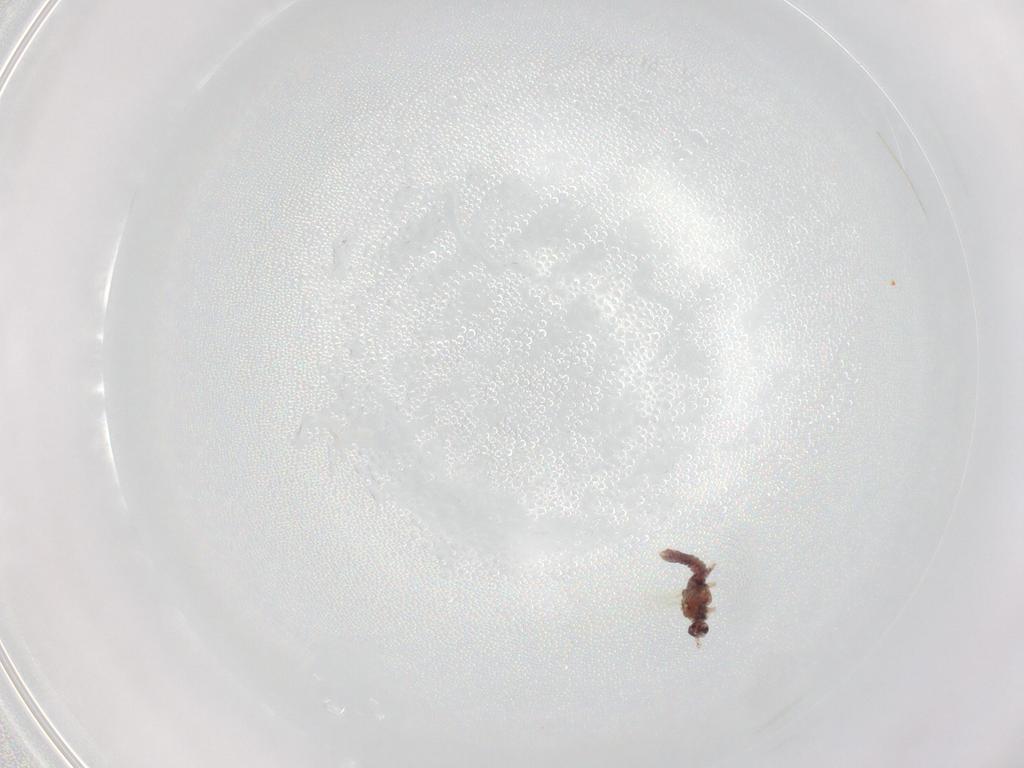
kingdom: Animalia
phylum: Arthropoda
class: Insecta
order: Diptera
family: Sciaridae
